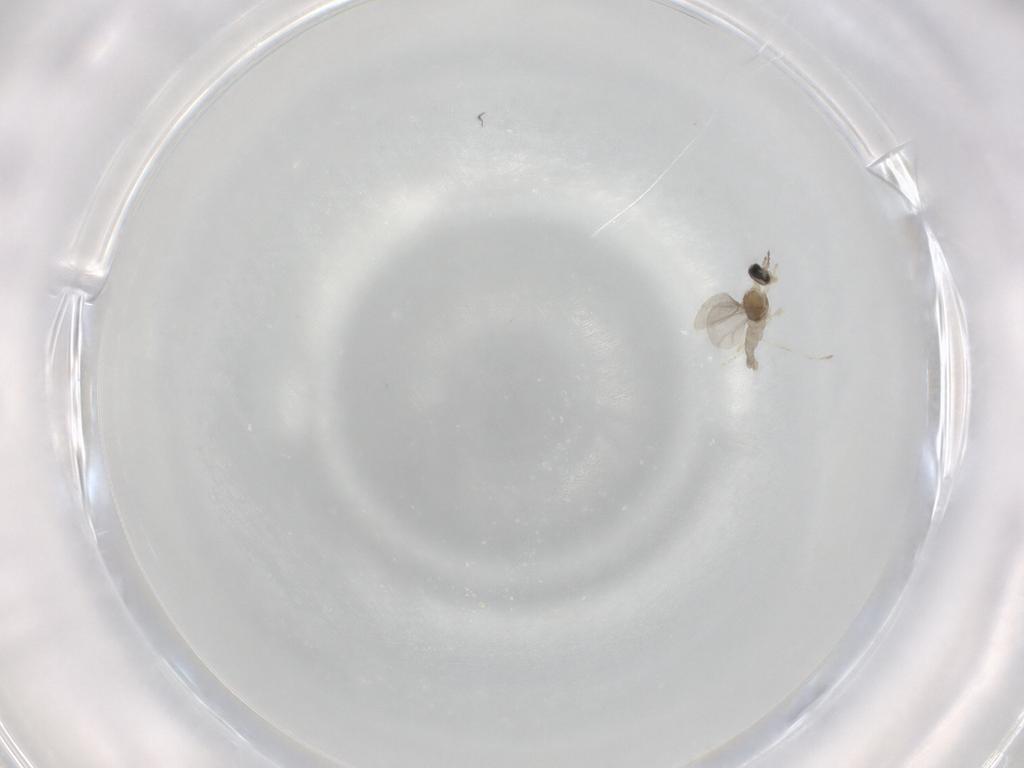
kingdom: Animalia
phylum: Arthropoda
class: Insecta
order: Diptera
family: Cecidomyiidae
